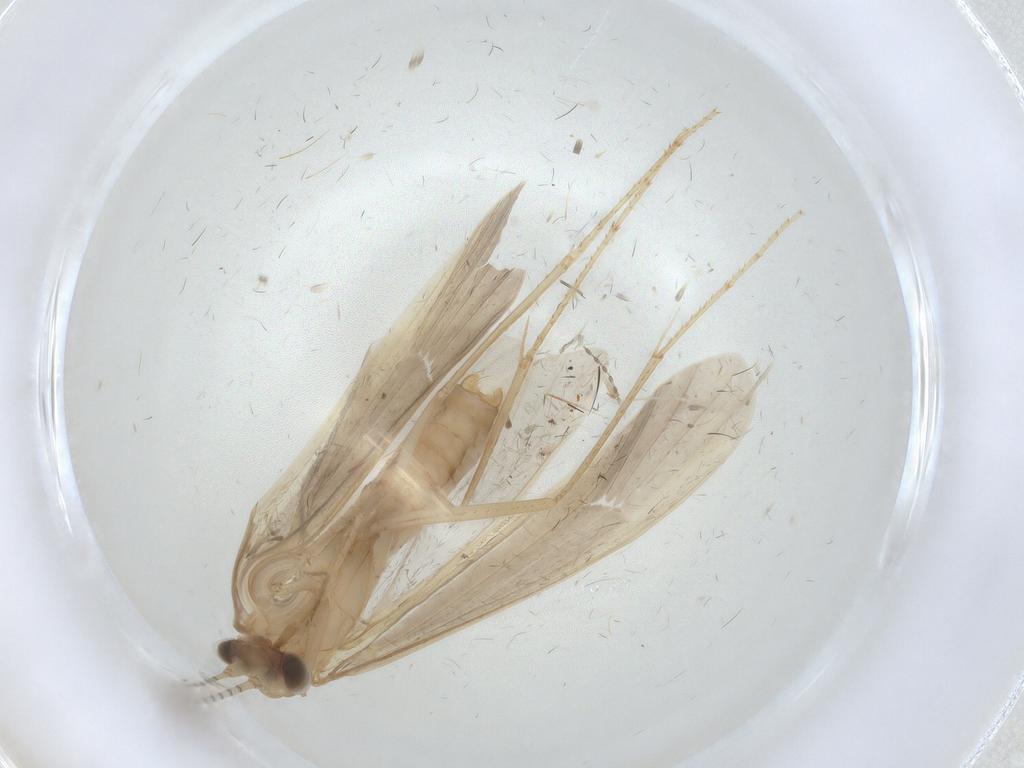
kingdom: Animalia
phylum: Arthropoda
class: Insecta
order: Trichoptera
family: Leptoceridae
